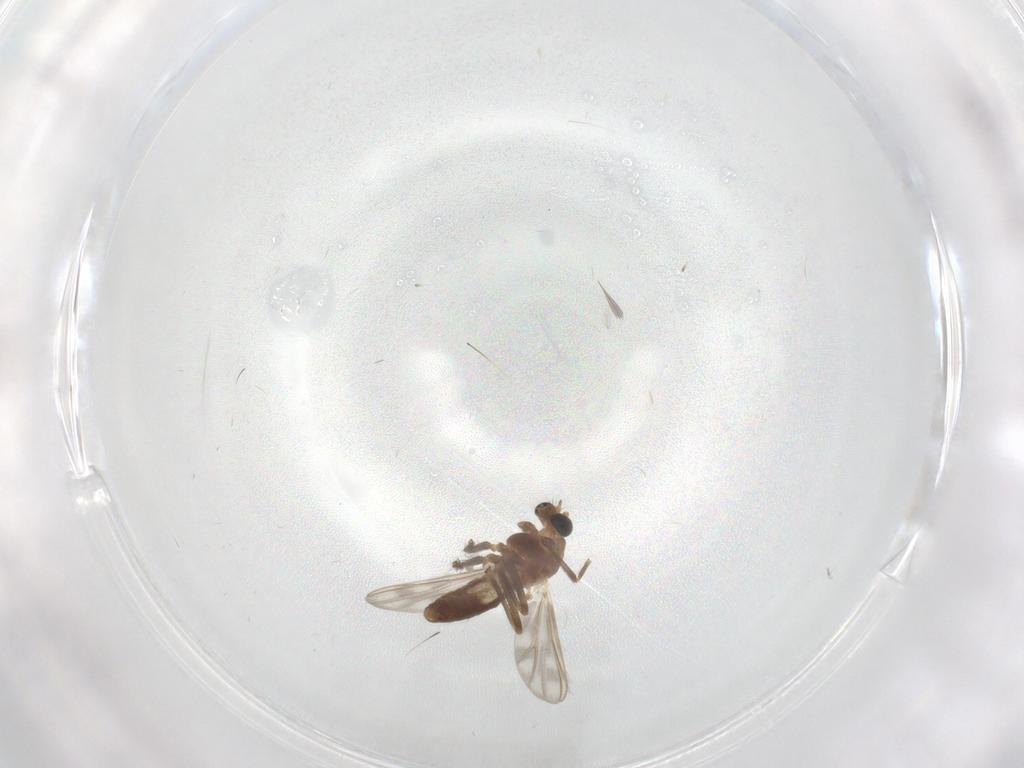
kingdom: Animalia
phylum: Arthropoda
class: Insecta
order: Diptera
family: Chironomidae
